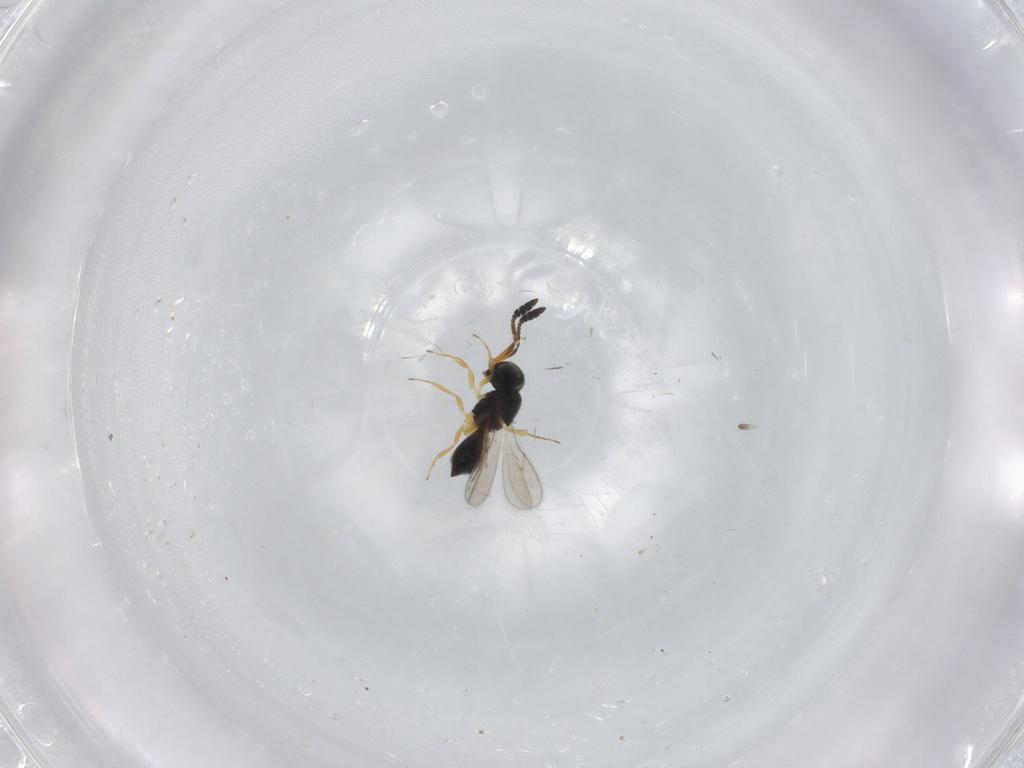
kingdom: Animalia
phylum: Arthropoda
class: Insecta
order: Hymenoptera
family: Scelionidae
